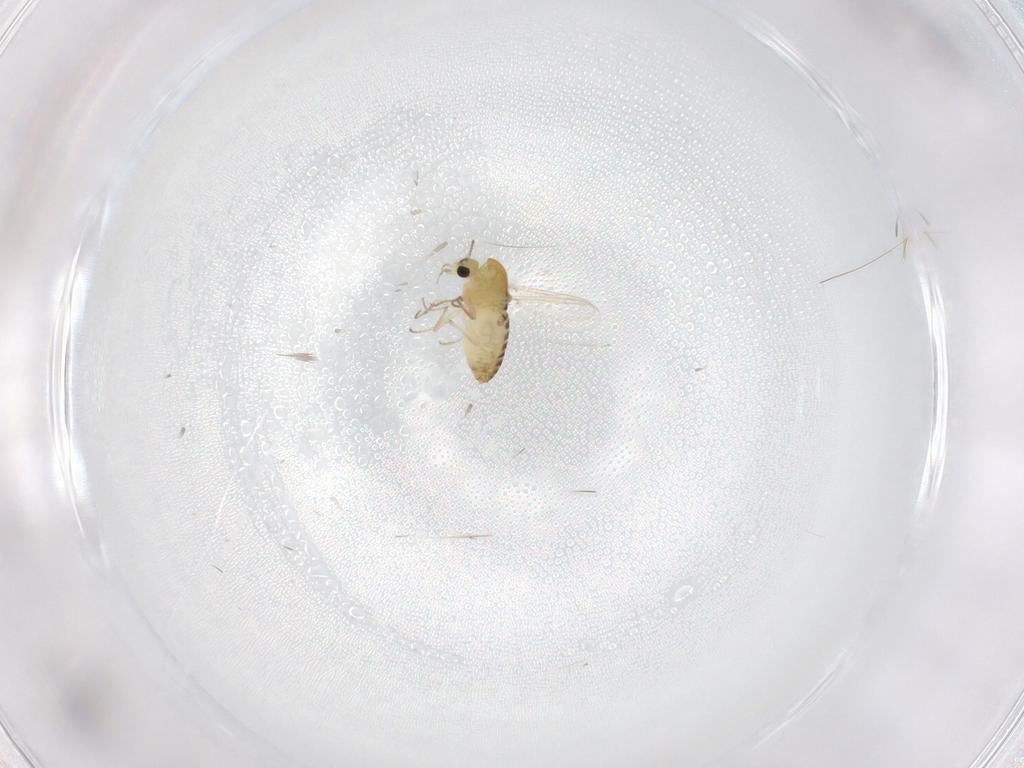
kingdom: Animalia
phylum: Arthropoda
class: Insecta
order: Diptera
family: Chironomidae
